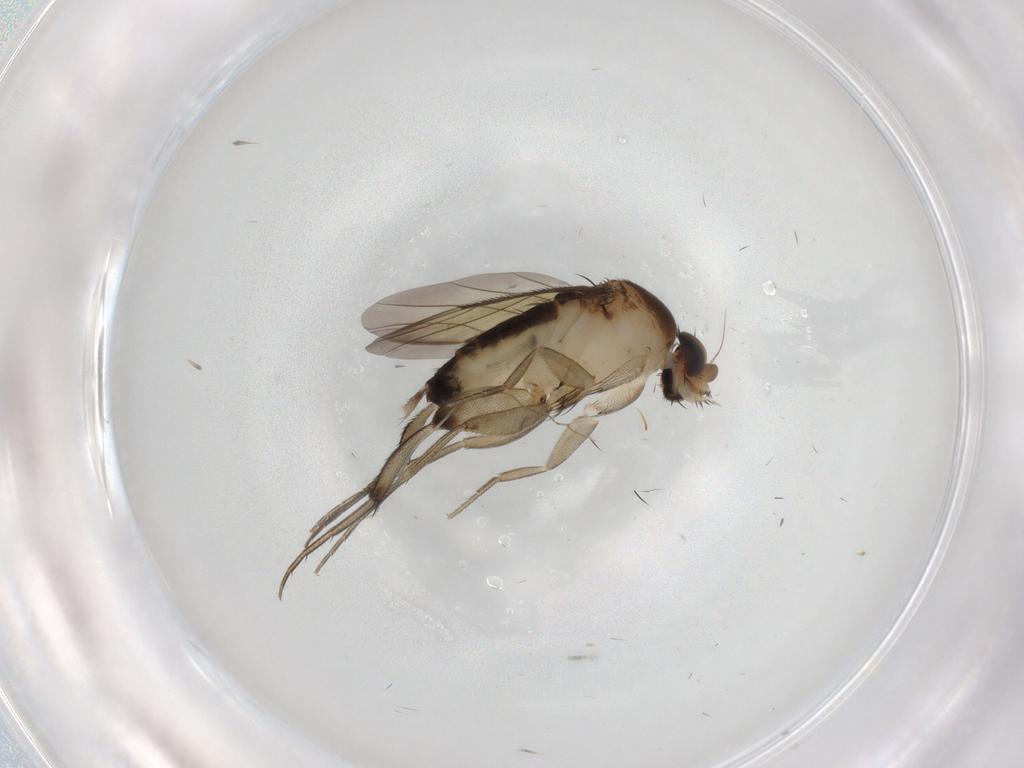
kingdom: Animalia
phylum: Arthropoda
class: Insecta
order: Diptera
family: Phoridae
